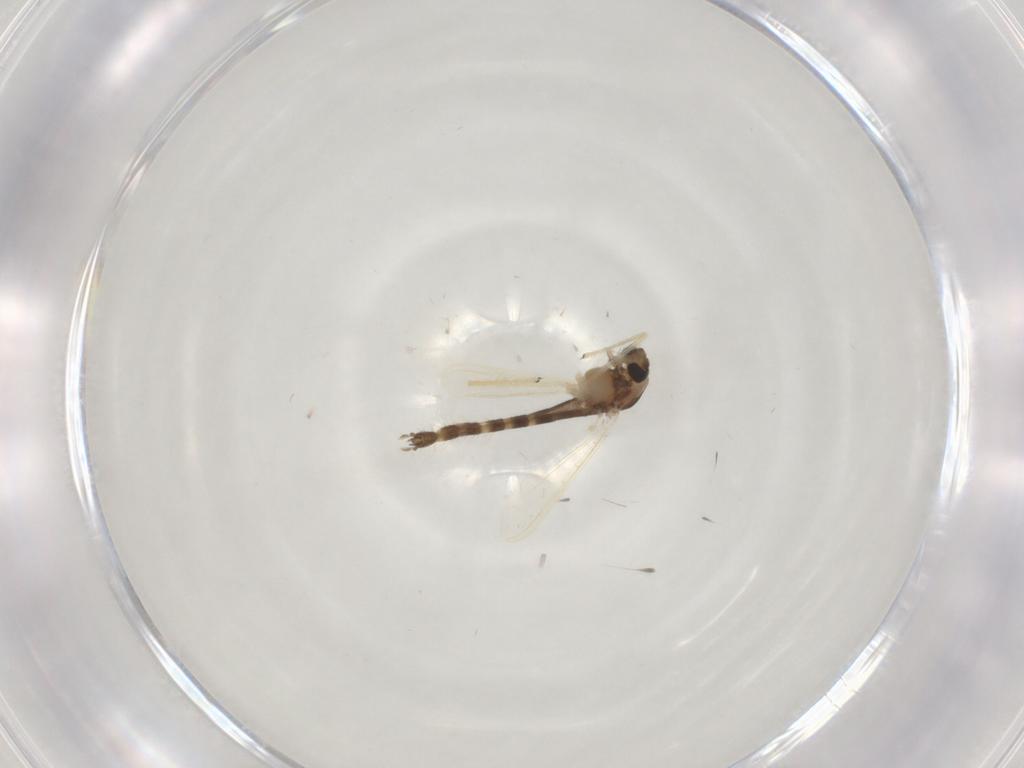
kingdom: Animalia
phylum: Arthropoda
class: Insecta
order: Diptera
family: Chironomidae
